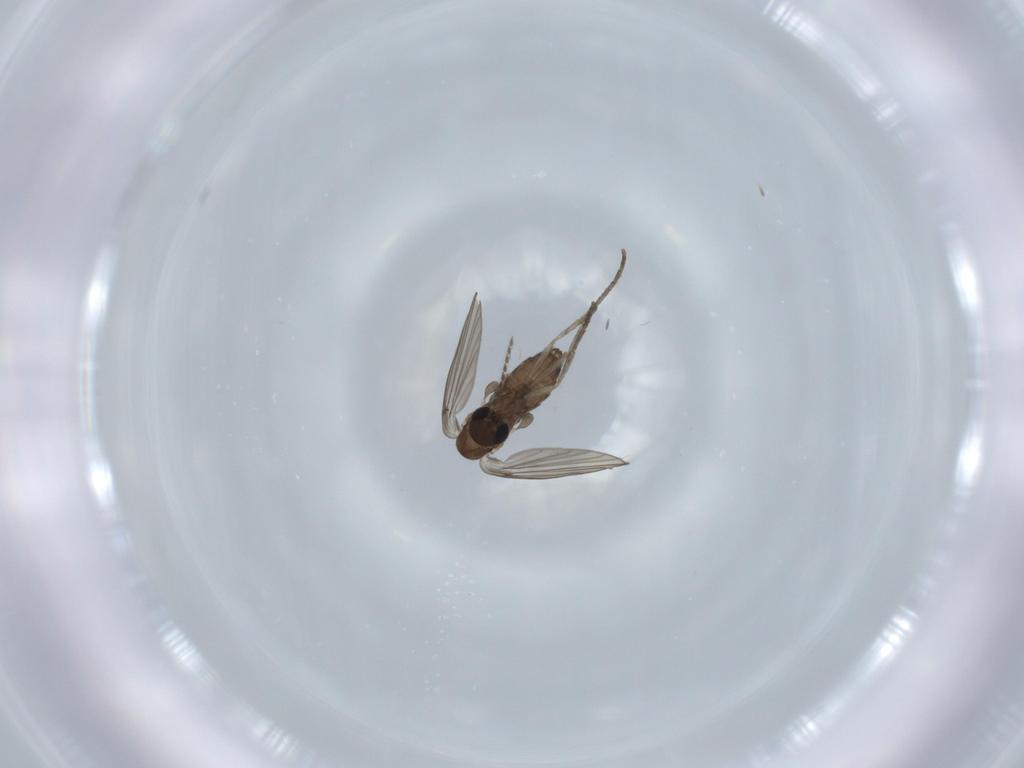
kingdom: Animalia
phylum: Arthropoda
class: Insecta
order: Diptera
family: Psychodidae
